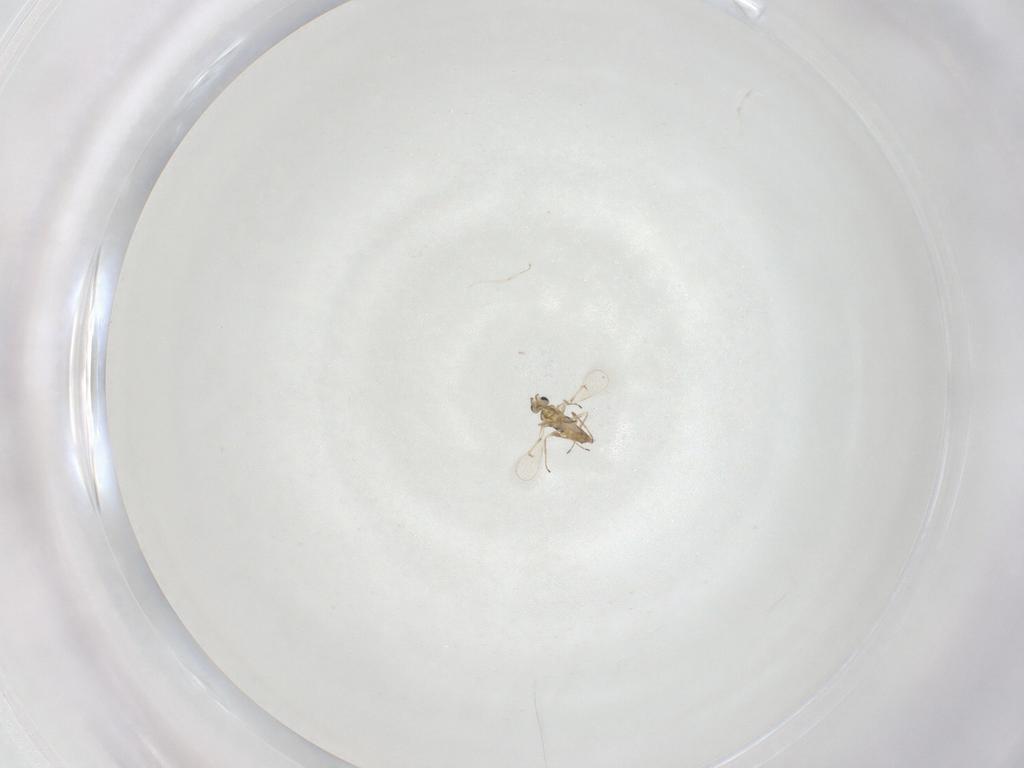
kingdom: Animalia
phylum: Arthropoda
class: Insecta
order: Hymenoptera
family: Trichogrammatidae
